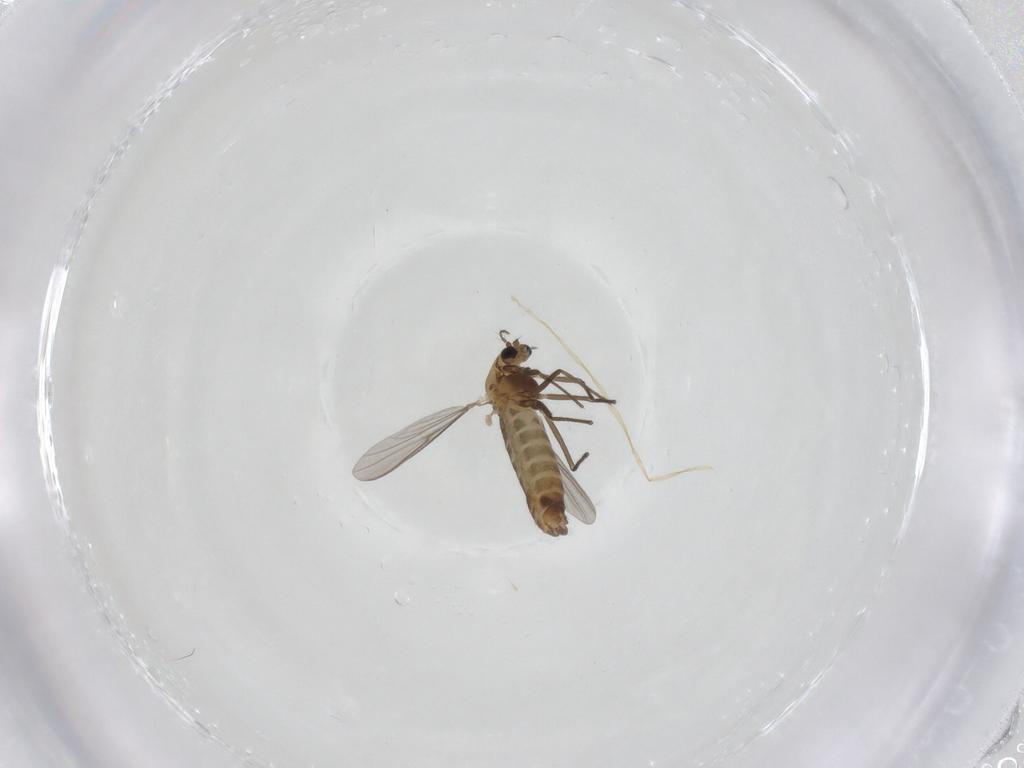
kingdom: Animalia
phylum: Arthropoda
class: Insecta
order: Diptera
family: Chironomidae
